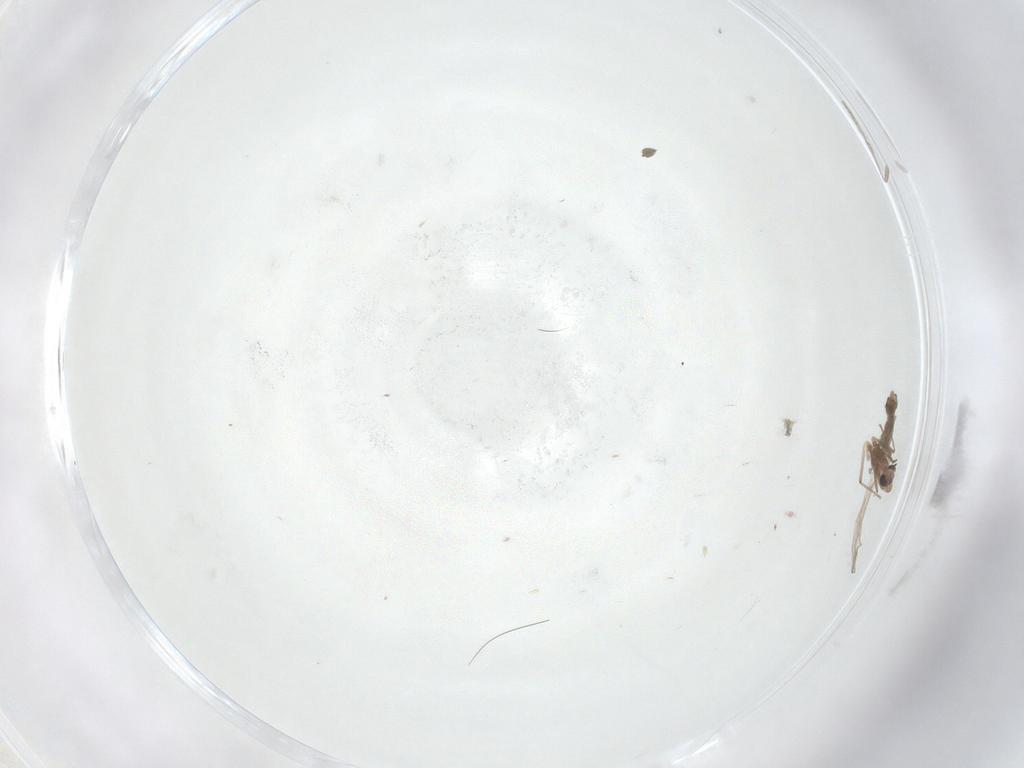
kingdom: Animalia
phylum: Arthropoda
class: Insecta
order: Diptera
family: Psychodidae
